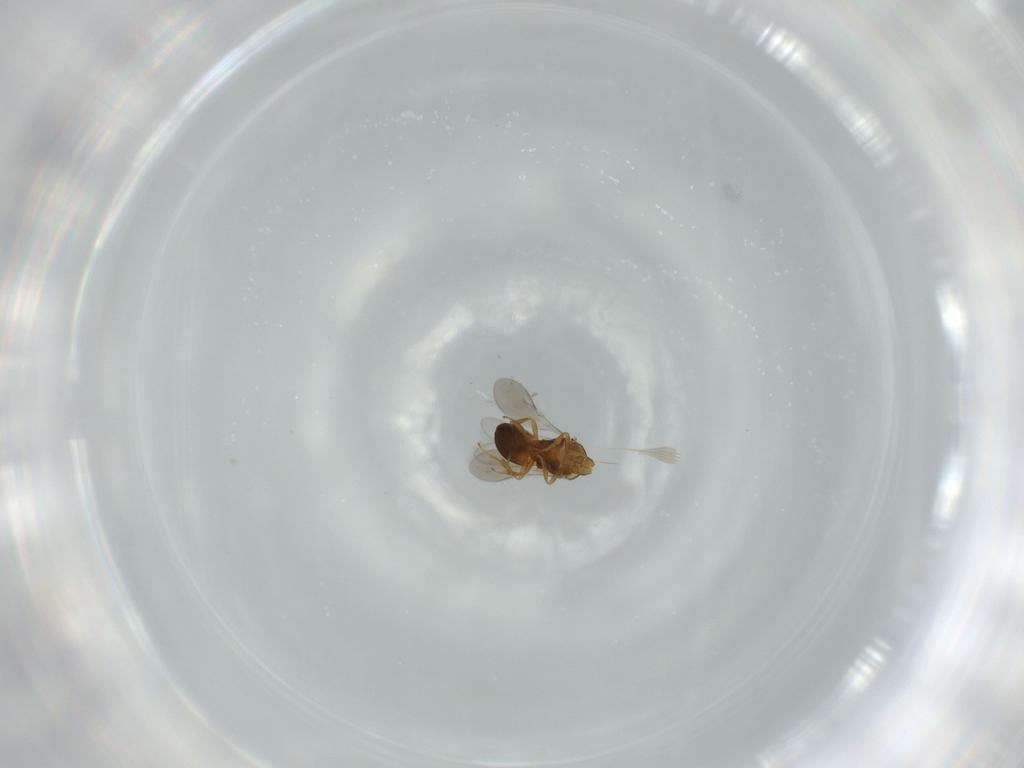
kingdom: Animalia
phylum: Arthropoda
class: Insecta
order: Hymenoptera
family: Scelionidae
